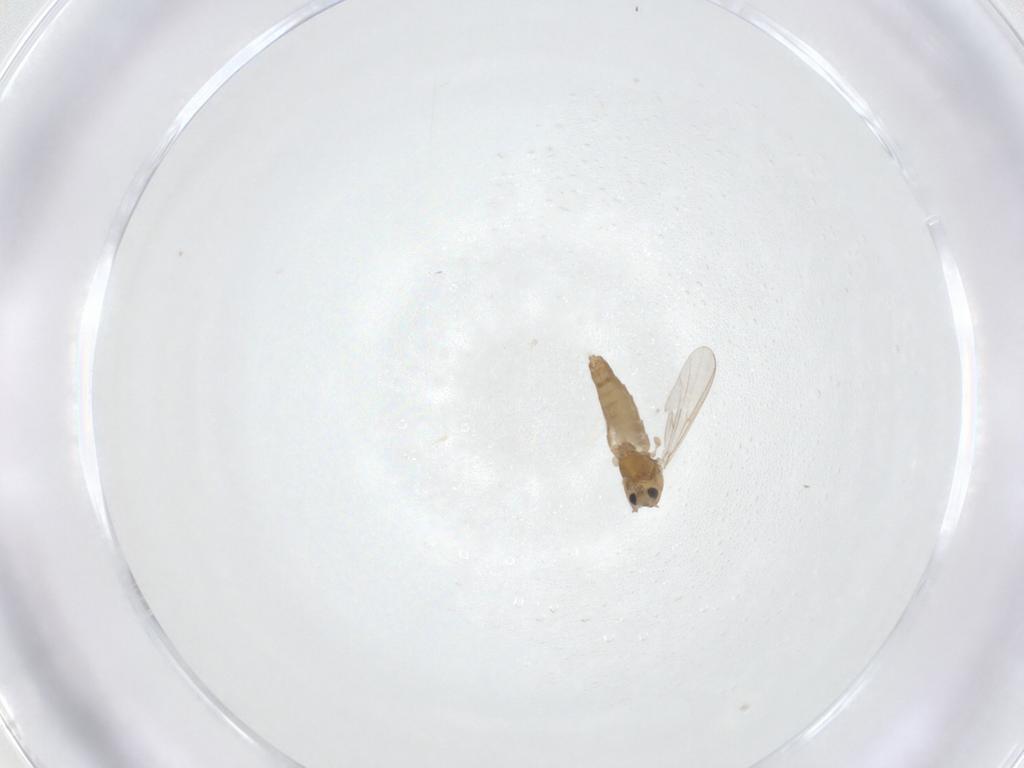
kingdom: Animalia
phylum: Arthropoda
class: Insecta
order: Diptera
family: Chironomidae
